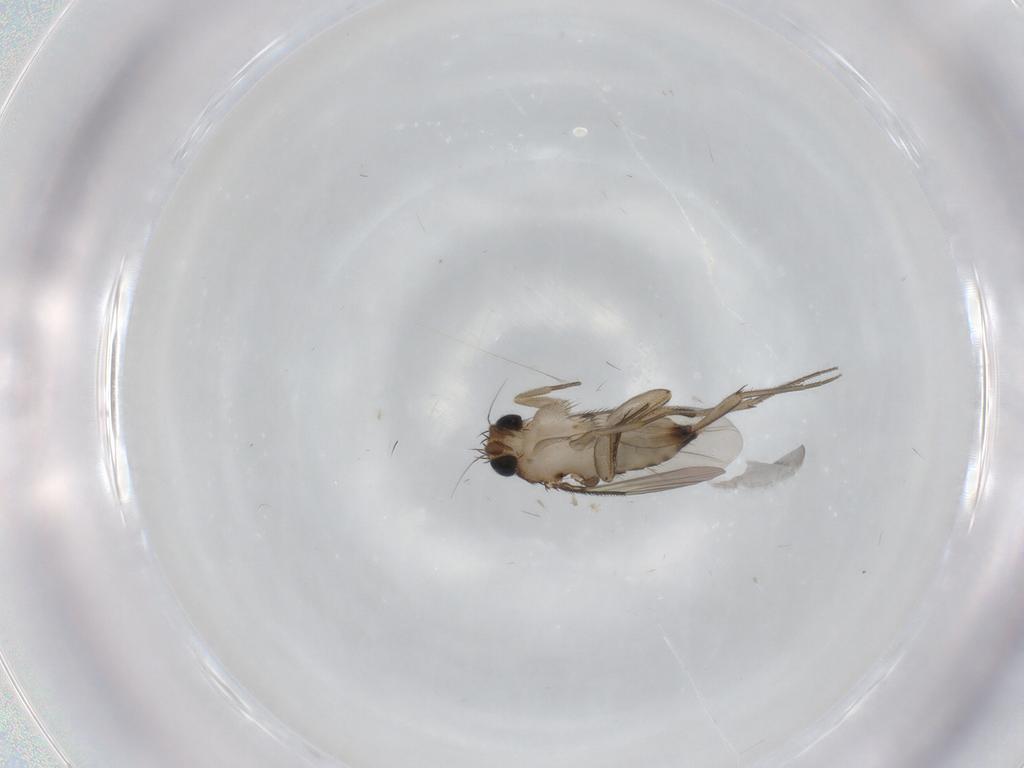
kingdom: Animalia
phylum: Arthropoda
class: Insecta
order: Diptera
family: Phoridae
